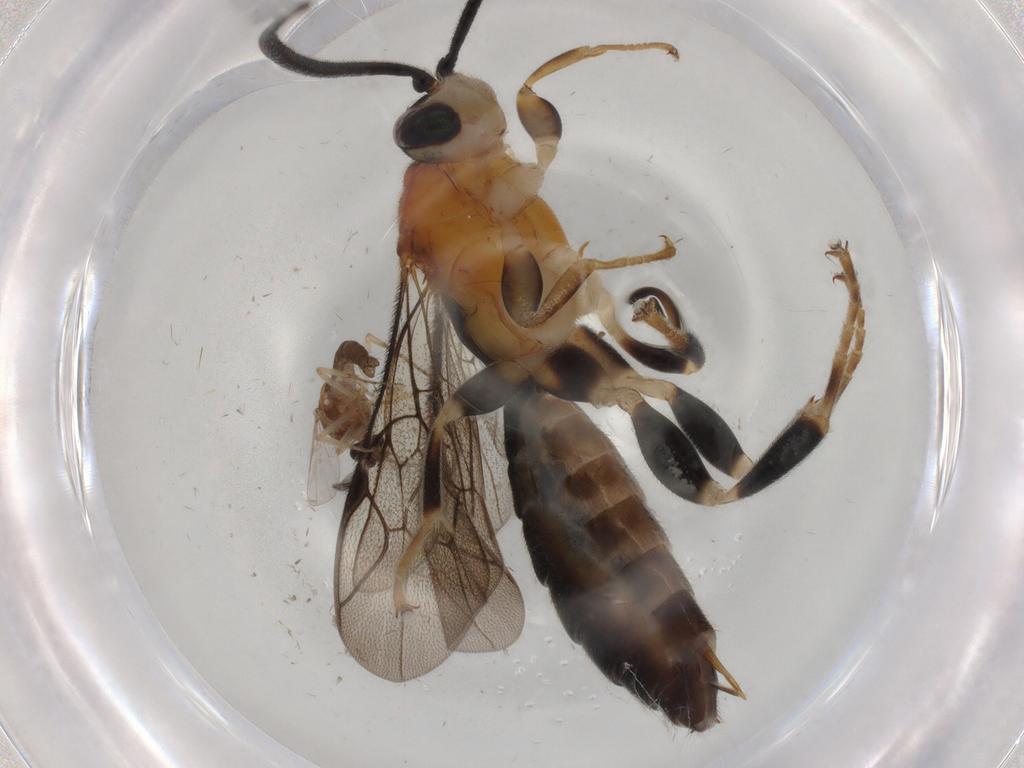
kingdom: Animalia
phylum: Arthropoda
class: Insecta
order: Diptera
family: Ceratopogonidae
